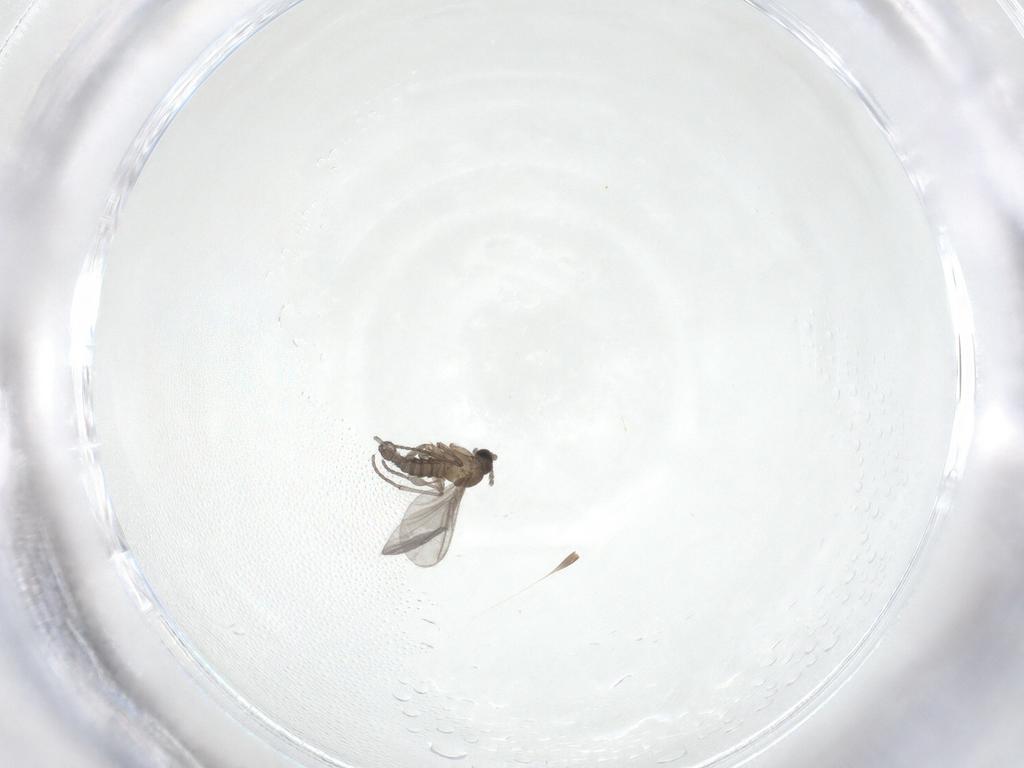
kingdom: Animalia
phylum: Arthropoda
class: Insecta
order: Diptera
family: Sciaridae
